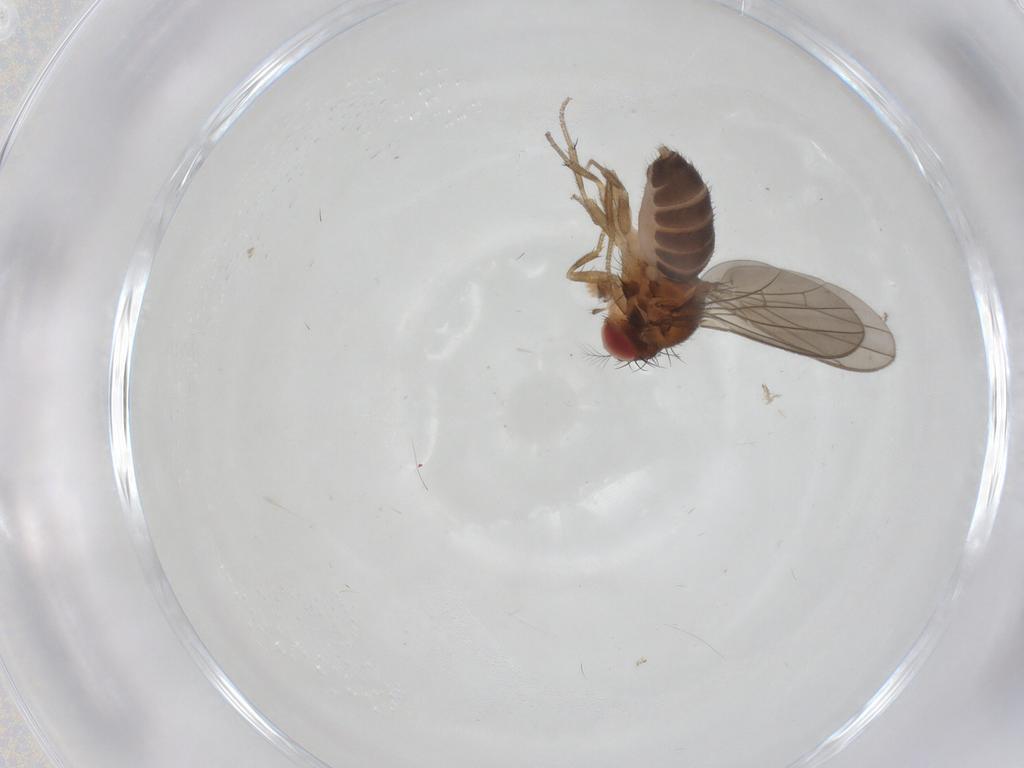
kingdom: Animalia
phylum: Arthropoda
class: Insecta
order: Diptera
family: Drosophilidae
